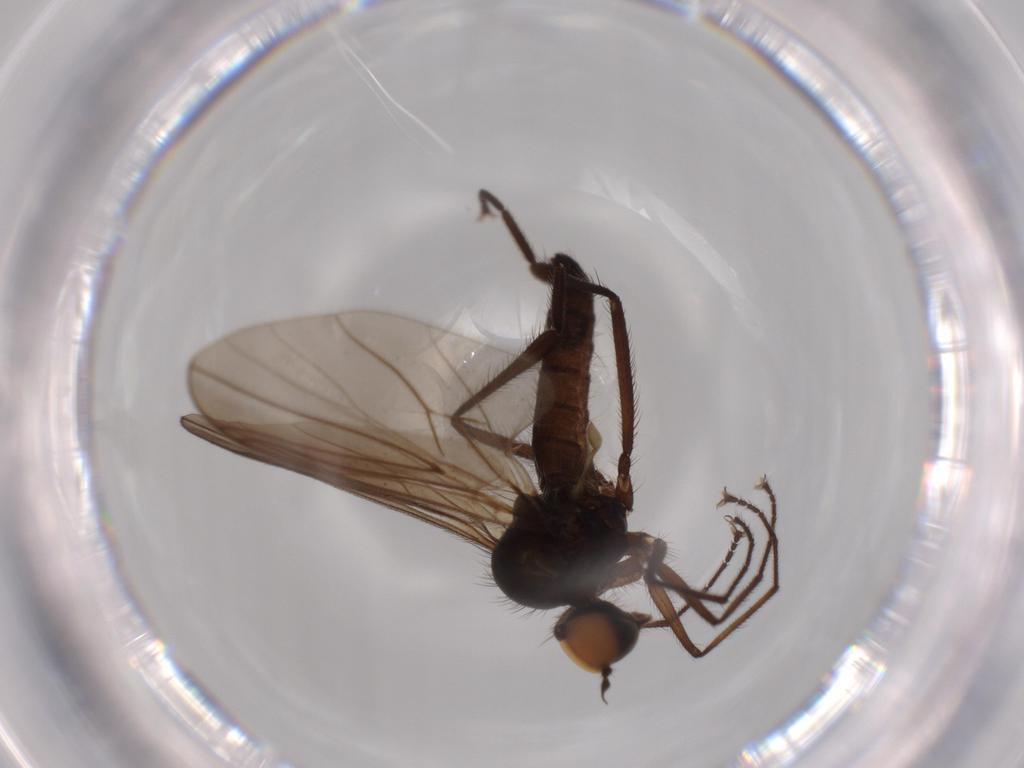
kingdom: Animalia
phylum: Arthropoda
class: Insecta
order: Diptera
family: Hybotidae
